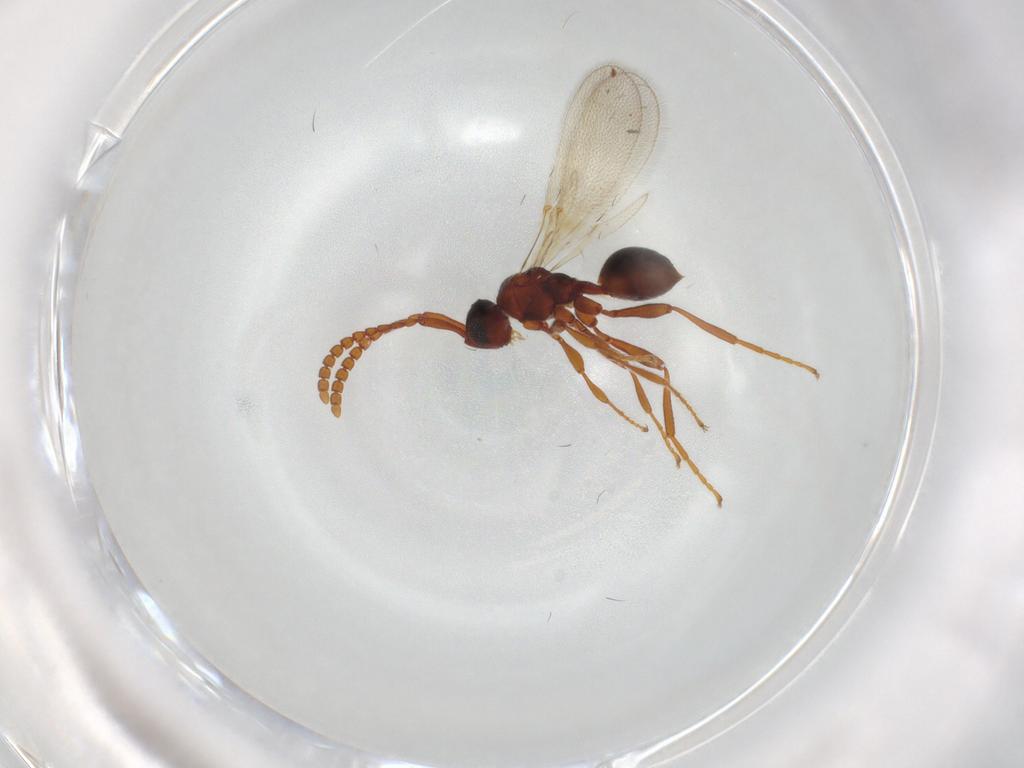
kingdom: Animalia
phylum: Arthropoda
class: Insecta
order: Hymenoptera
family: Diapriidae
